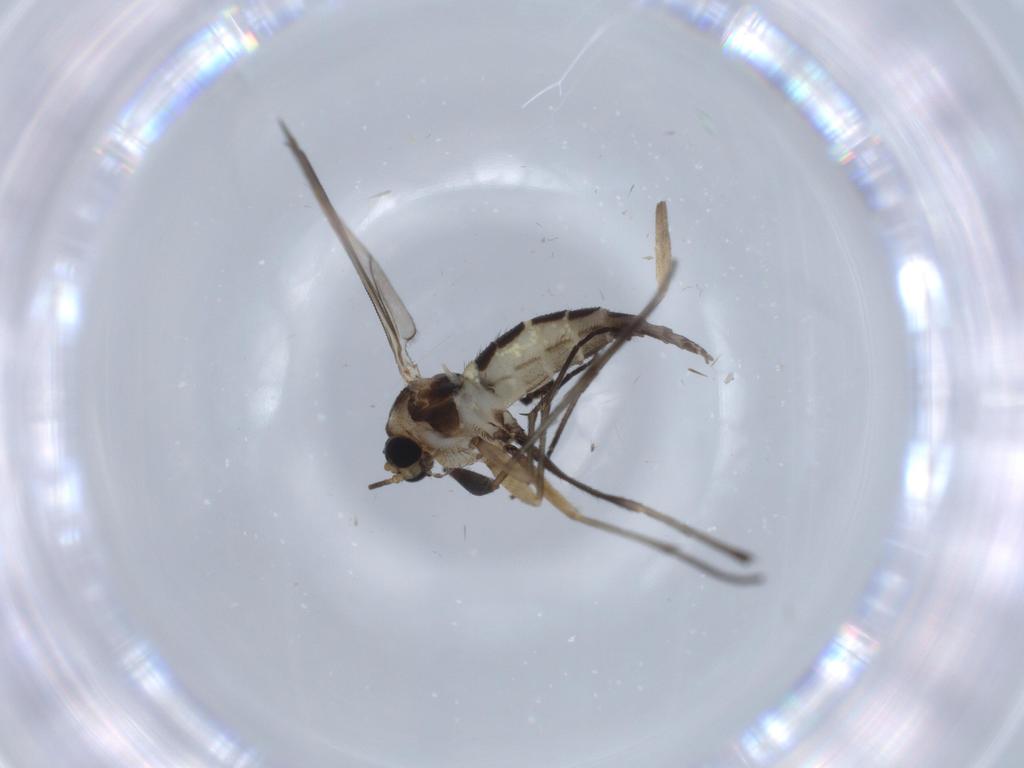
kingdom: Animalia
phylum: Arthropoda
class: Insecta
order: Diptera
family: Sciaridae
